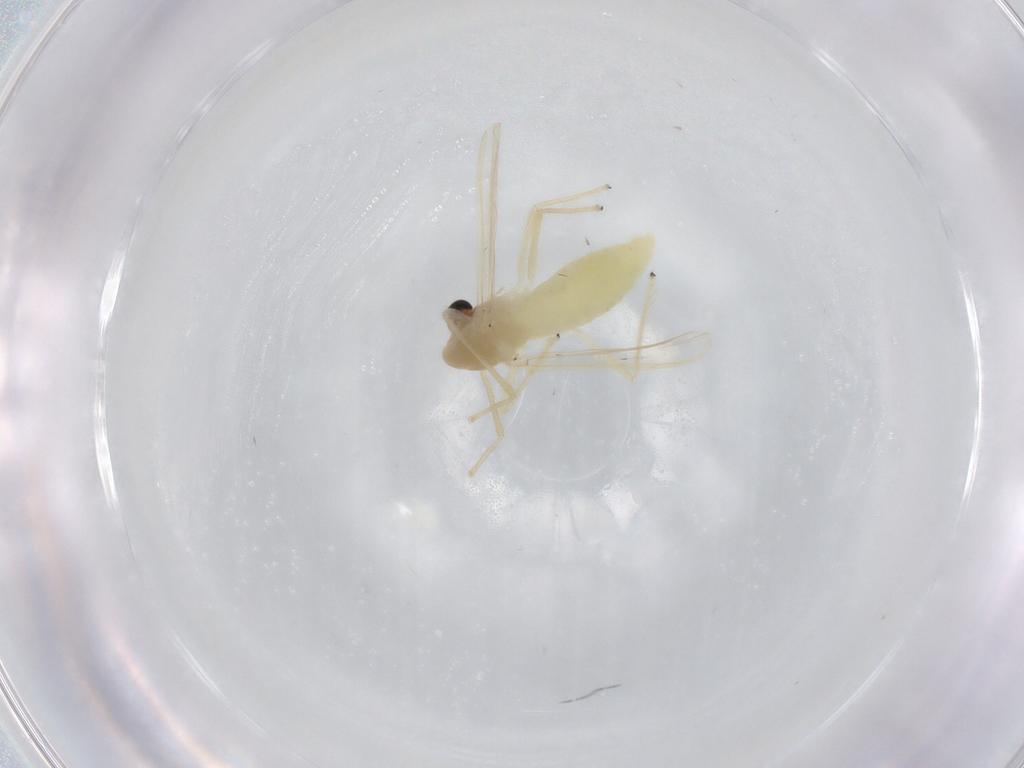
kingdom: Animalia
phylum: Arthropoda
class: Insecta
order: Diptera
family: Ceratopogonidae
